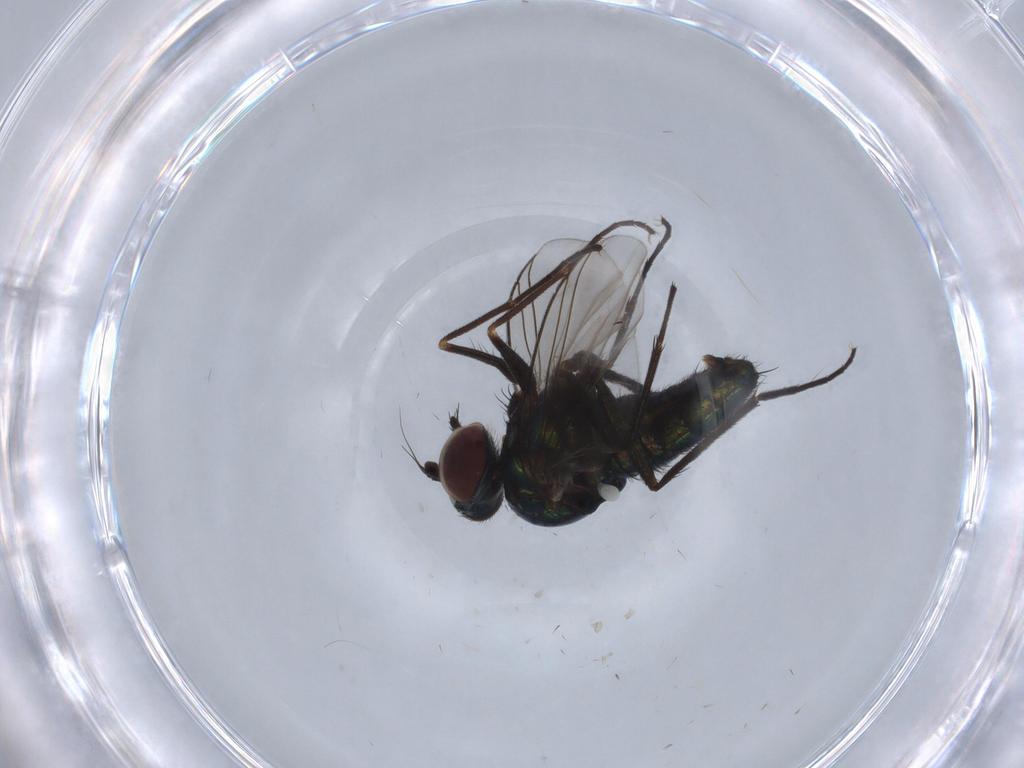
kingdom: Animalia
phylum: Arthropoda
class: Insecta
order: Diptera
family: Dolichopodidae
